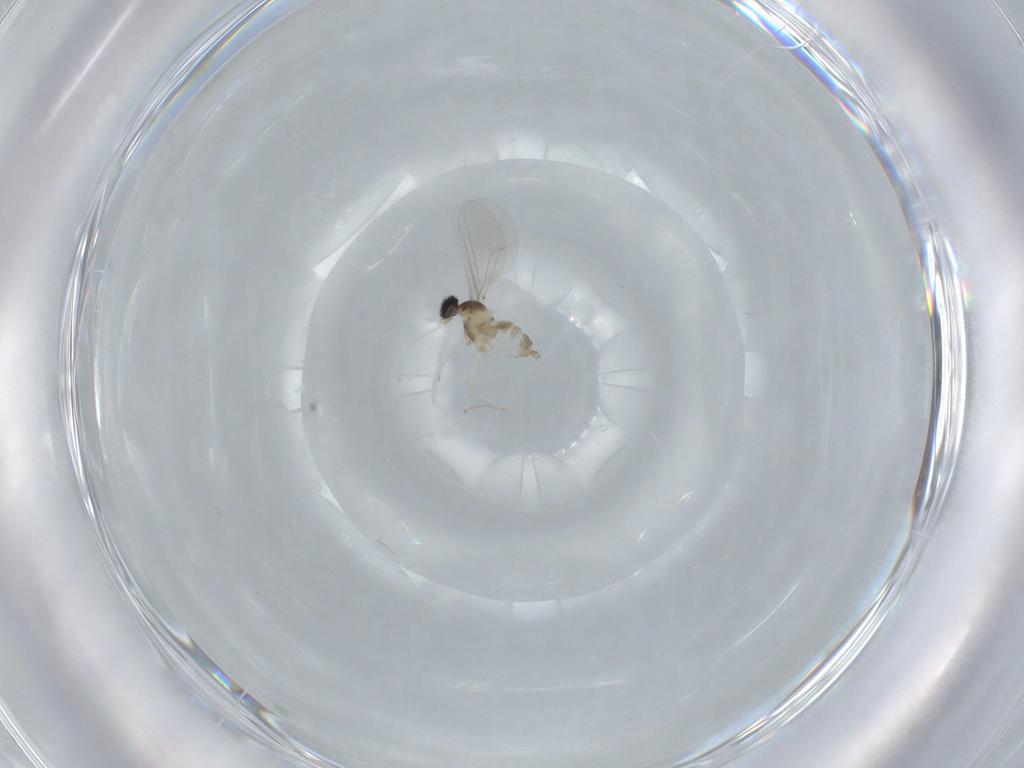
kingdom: Animalia
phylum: Arthropoda
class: Insecta
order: Diptera
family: Cecidomyiidae
